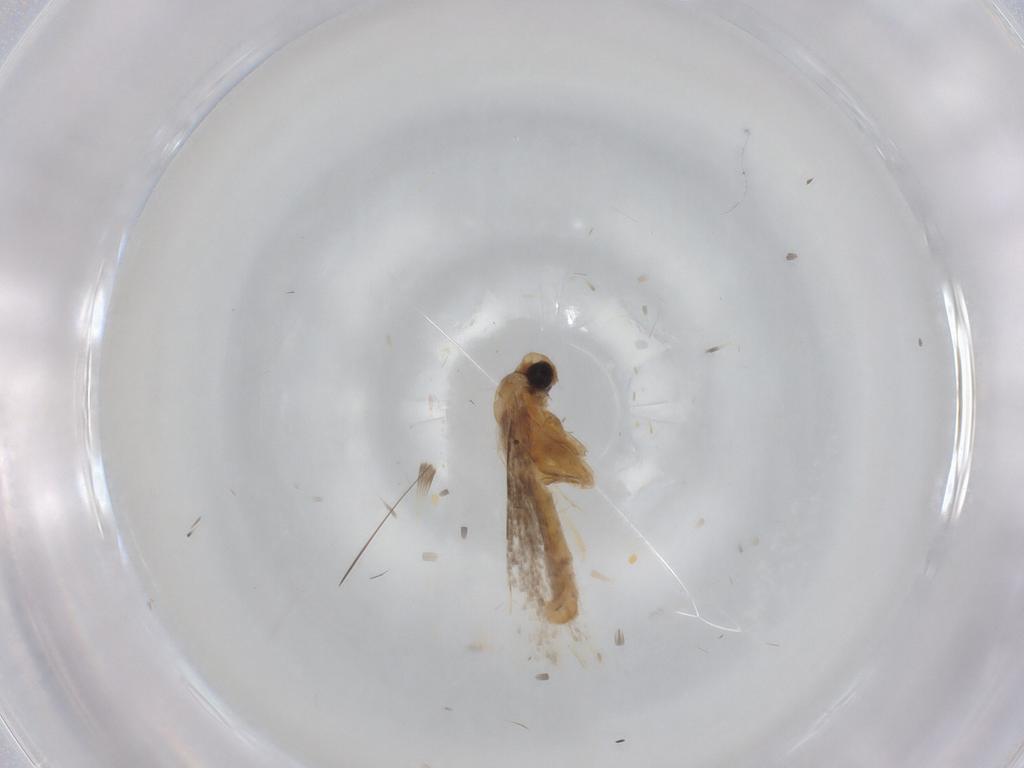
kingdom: Animalia
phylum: Arthropoda
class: Insecta
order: Lepidoptera
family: Gracillariidae
